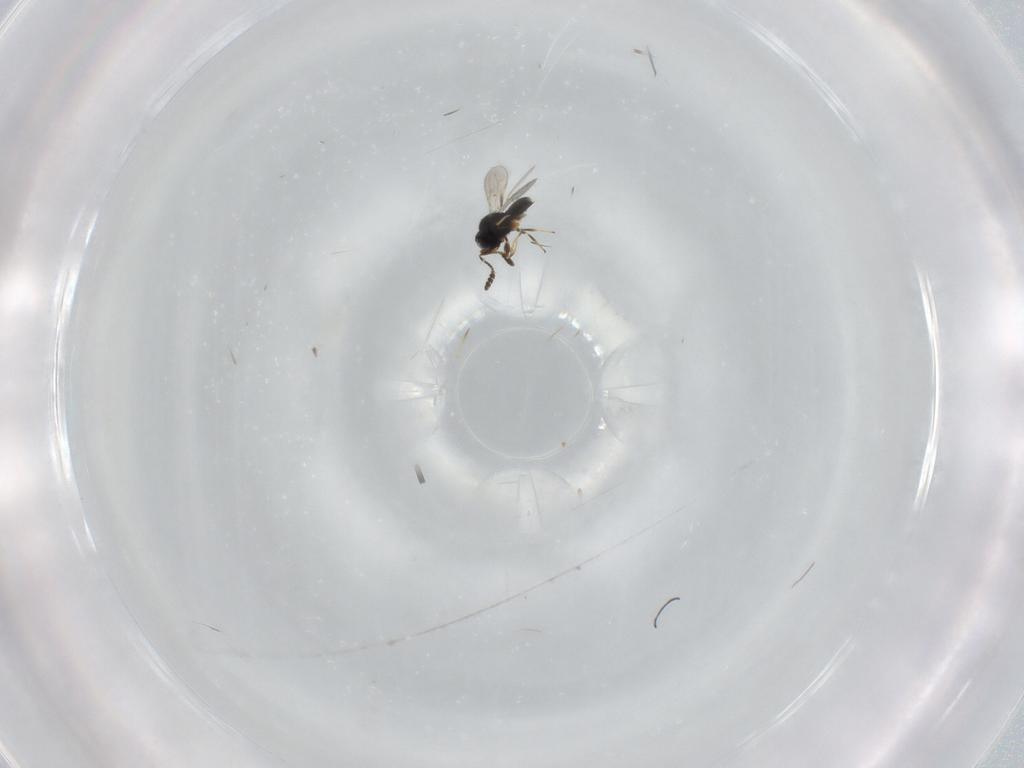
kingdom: Animalia
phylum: Arthropoda
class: Insecta
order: Hymenoptera
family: Scelionidae
